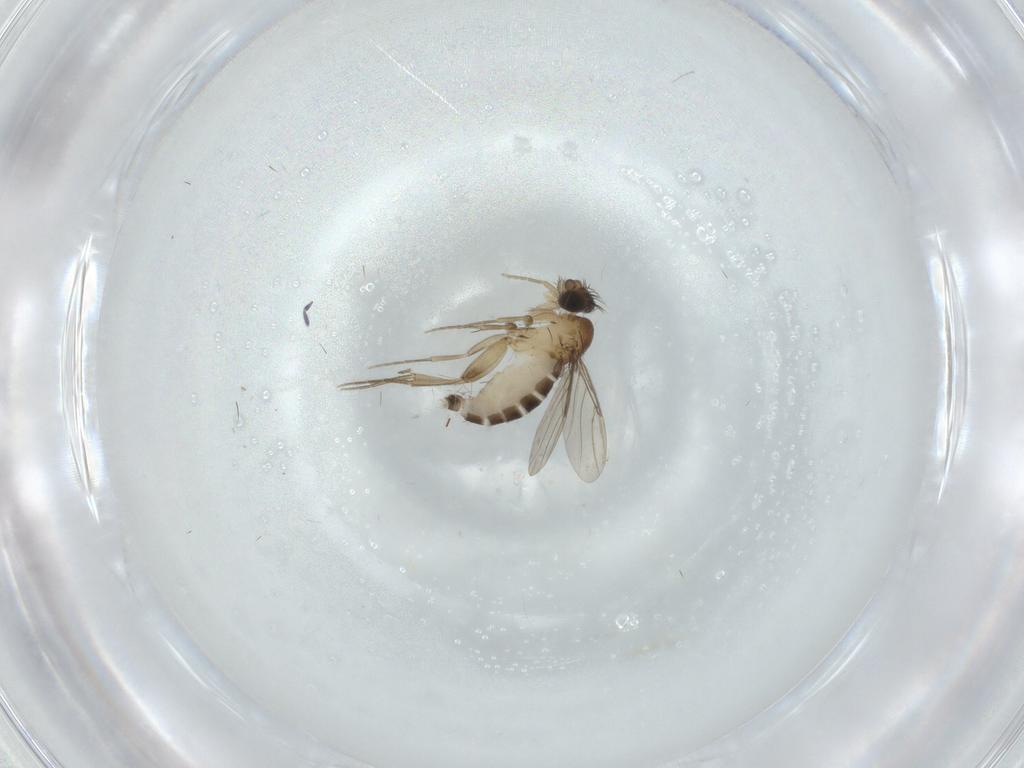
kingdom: Animalia
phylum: Arthropoda
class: Insecta
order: Diptera
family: Phoridae
